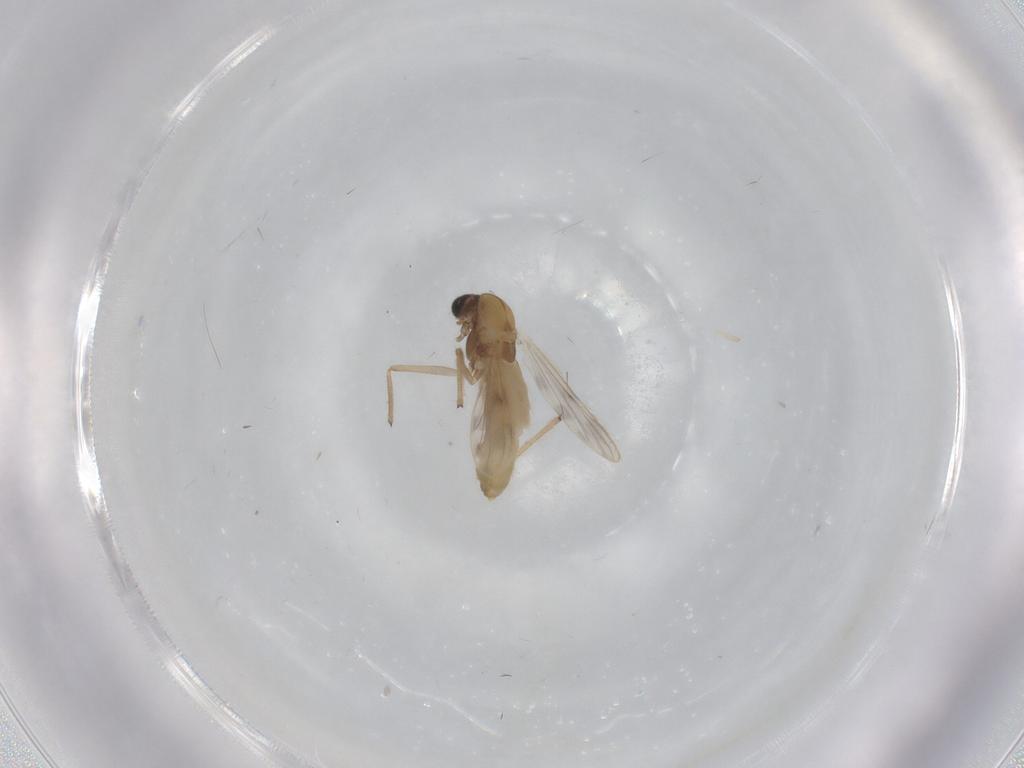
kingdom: Animalia
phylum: Arthropoda
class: Insecta
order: Diptera
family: Chironomidae
